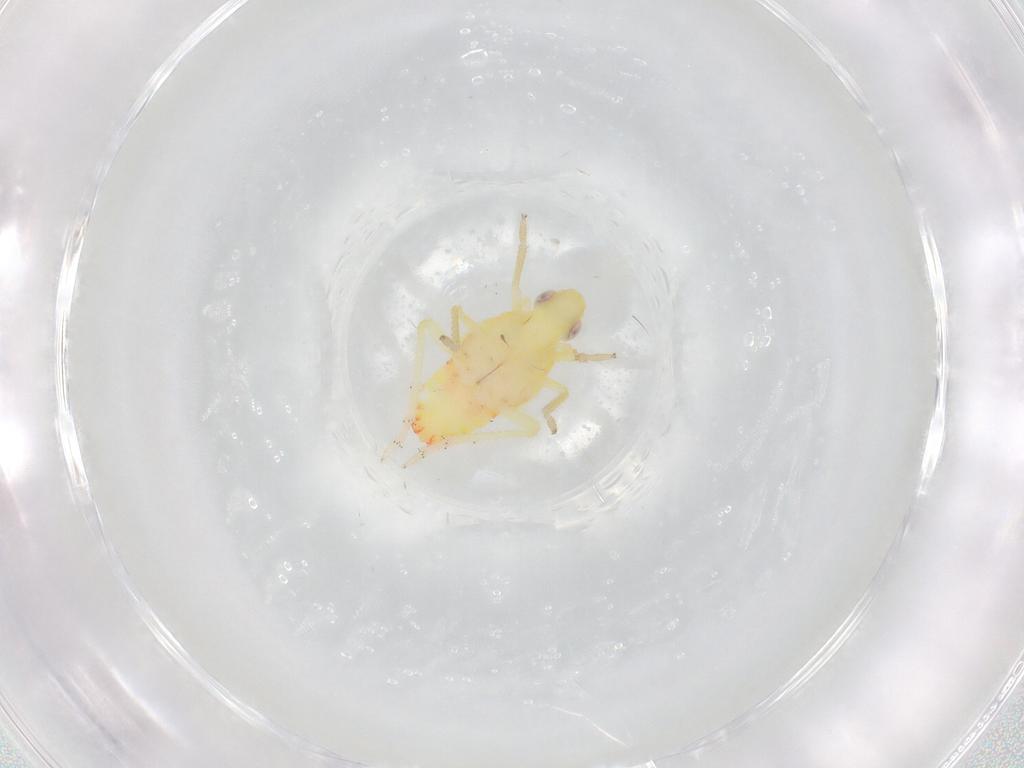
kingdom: Animalia
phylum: Arthropoda
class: Insecta
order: Hemiptera
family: Tropiduchidae
